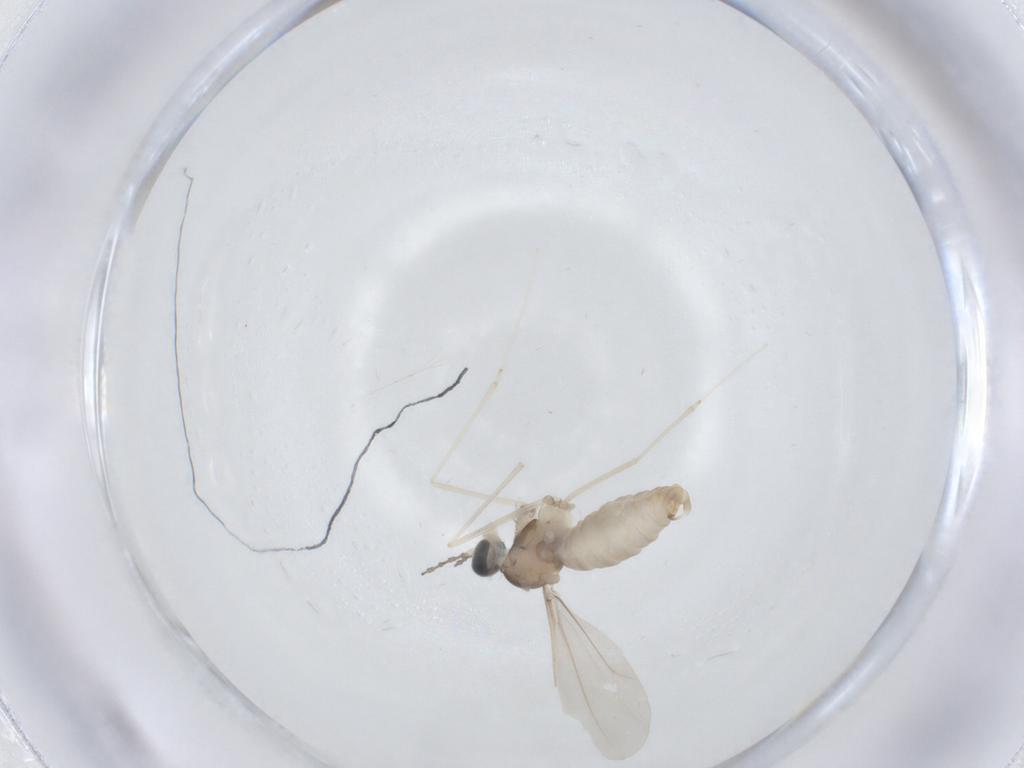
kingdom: Animalia
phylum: Arthropoda
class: Insecta
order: Diptera
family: Cecidomyiidae
